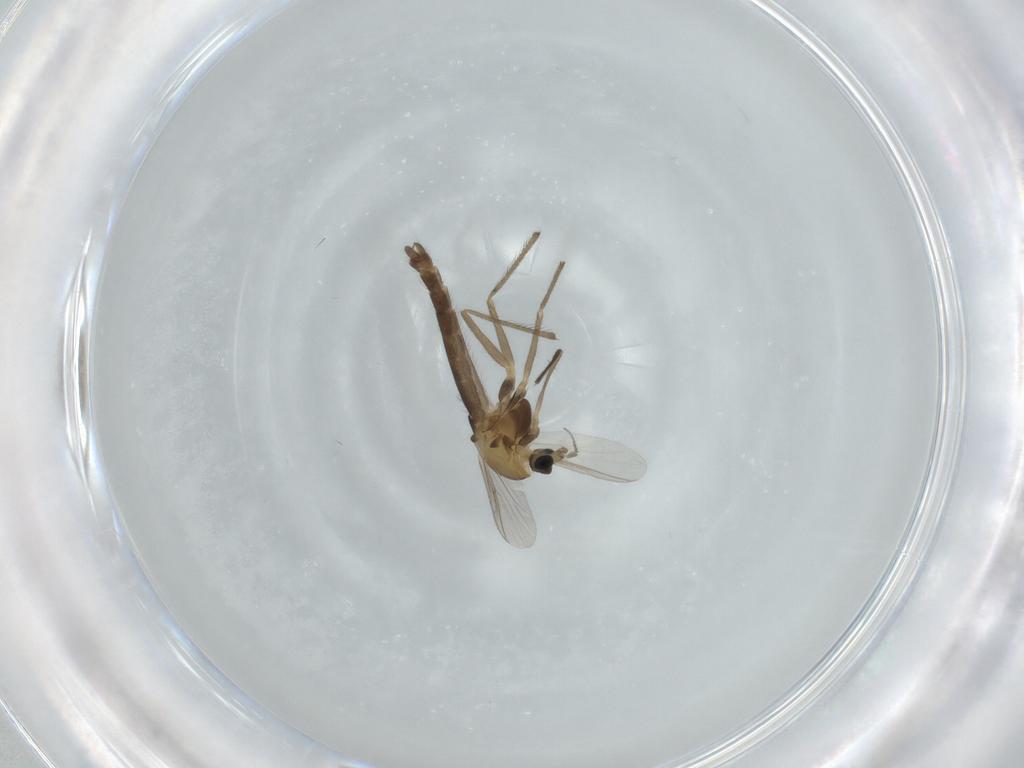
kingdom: Animalia
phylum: Arthropoda
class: Insecta
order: Diptera
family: Chironomidae
